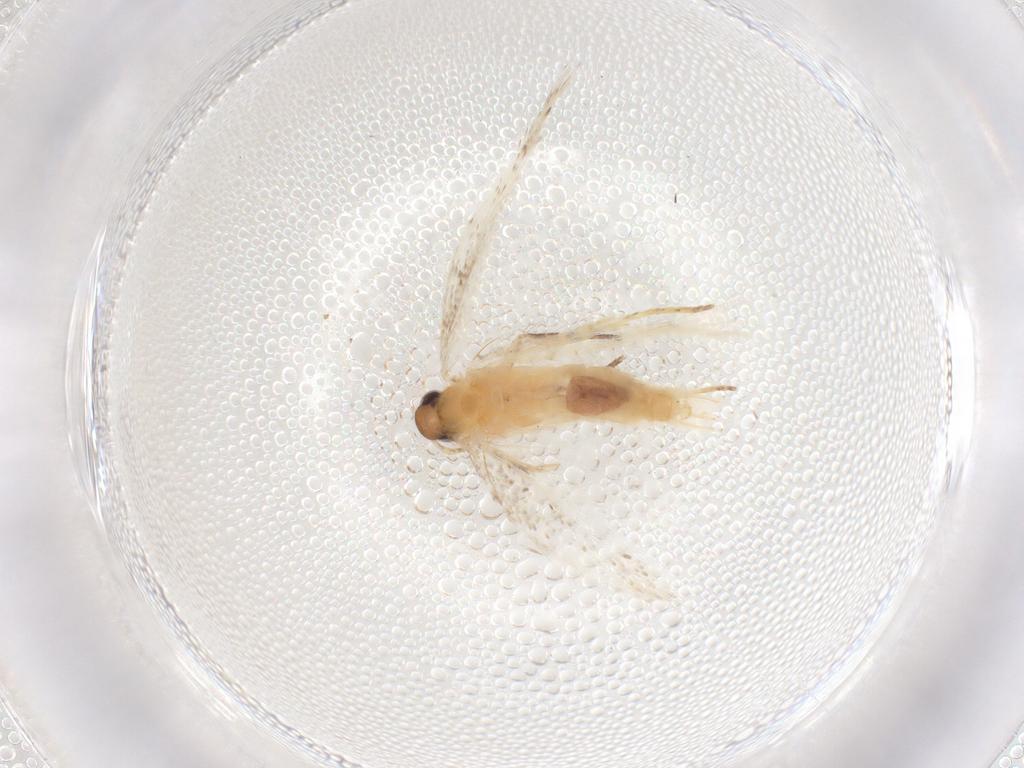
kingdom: Animalia
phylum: Arthropoda
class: Insecta
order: Lepidoptera
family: Gelechiidae
